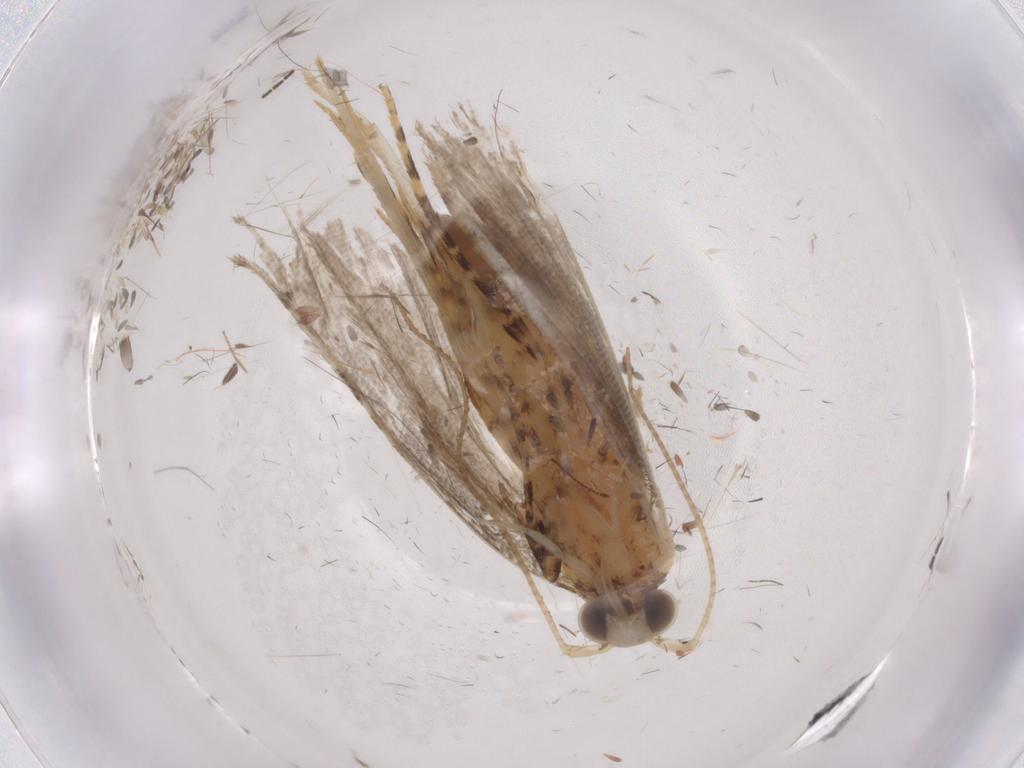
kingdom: Animalia
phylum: Arthropoda
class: Insecta
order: Lepidoptera
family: Gelechiidae
